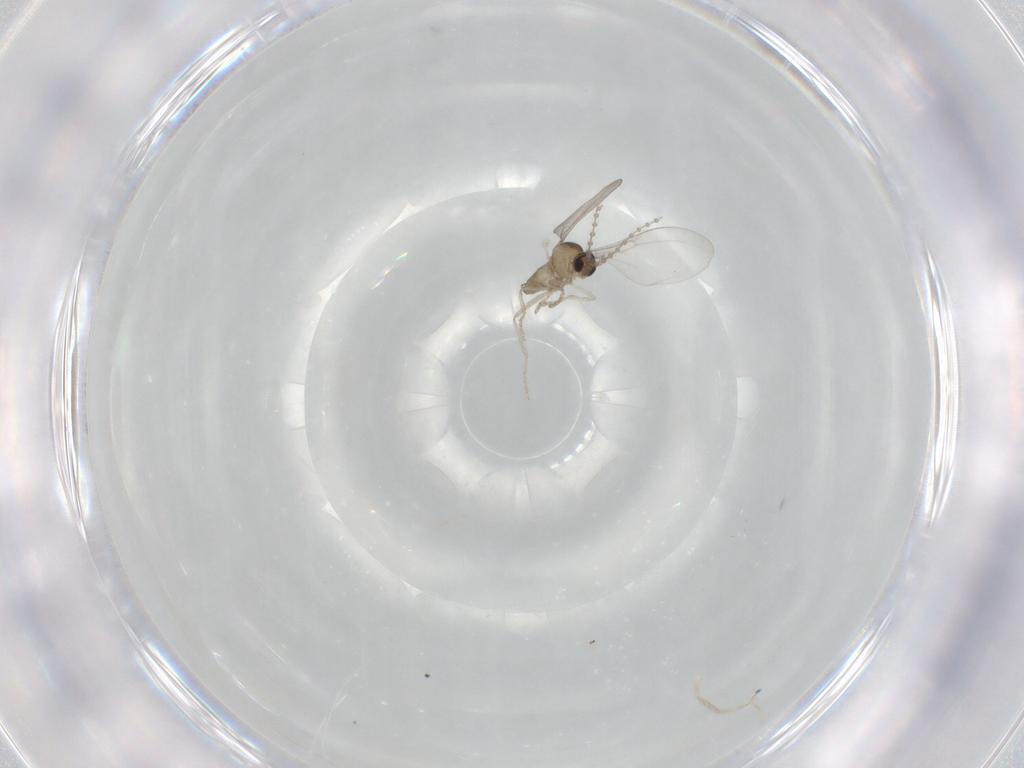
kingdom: Animalia
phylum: Arthropoda
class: Insecta
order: Diptera
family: Cecidomyiidae
